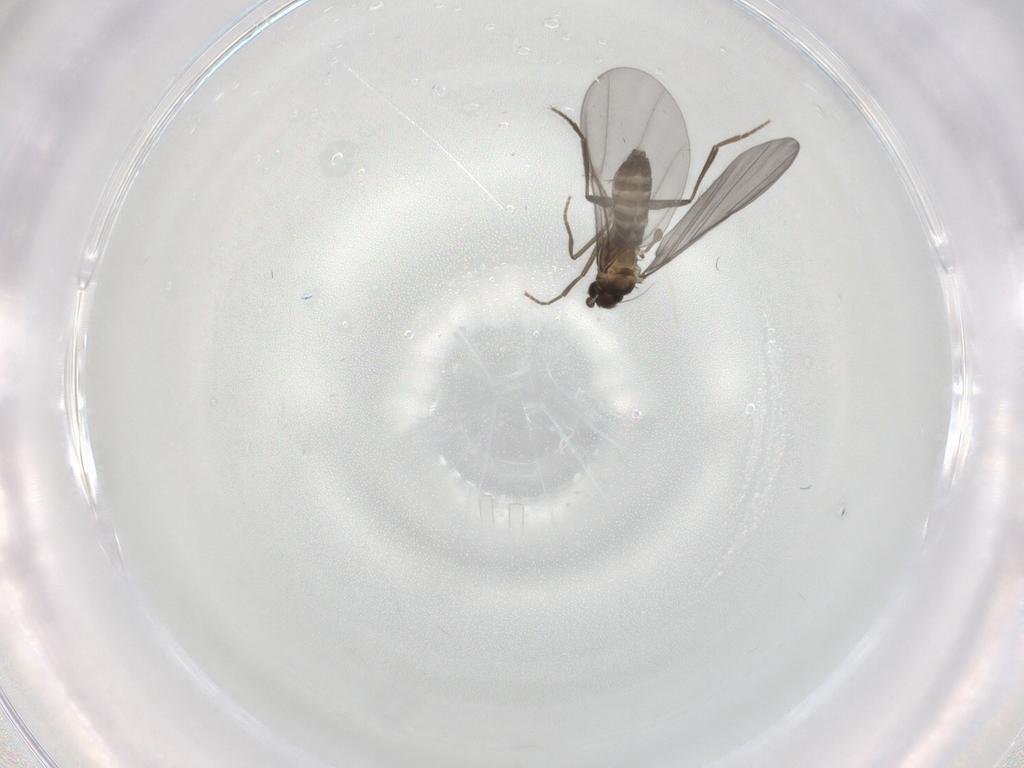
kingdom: Animalia
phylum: Arthropoda
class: Insecta
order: Diptera
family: Phoridae
